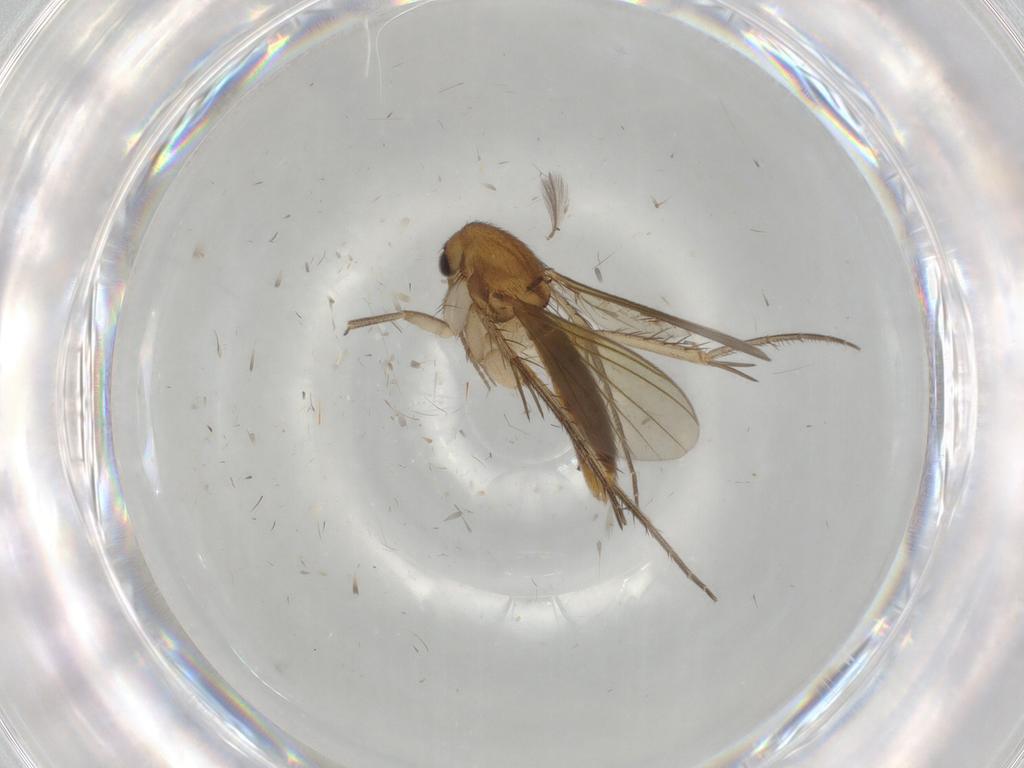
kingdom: Animalia
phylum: Arthropoda
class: Insecta
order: Diptera
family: Mycetophilidae
